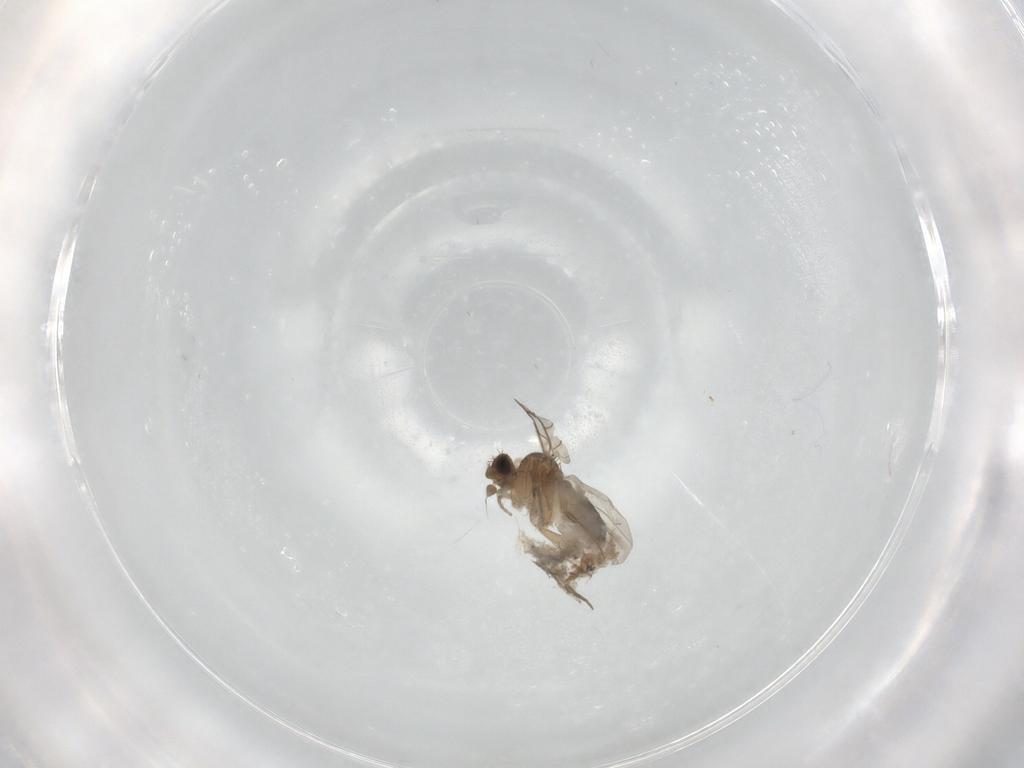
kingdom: Animalia
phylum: Arthropoda
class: Insecta
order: Diptera
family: Phoridae
